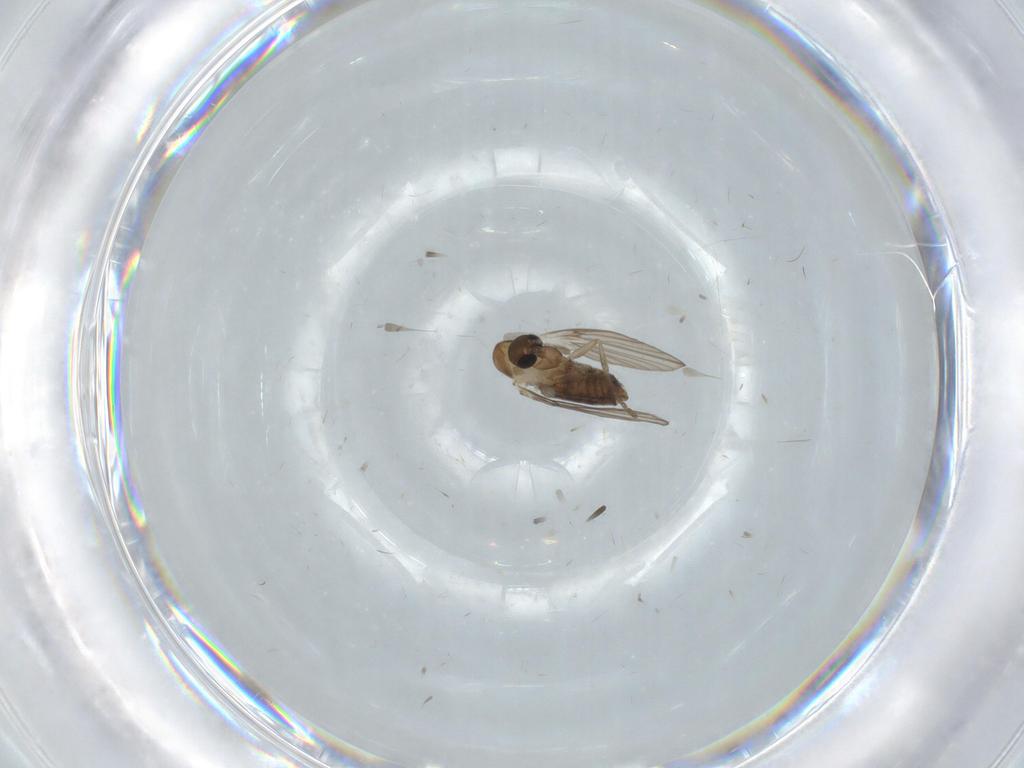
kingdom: Animalia
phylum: Arthropoda
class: Insecta
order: Diptera
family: Psychodidae
